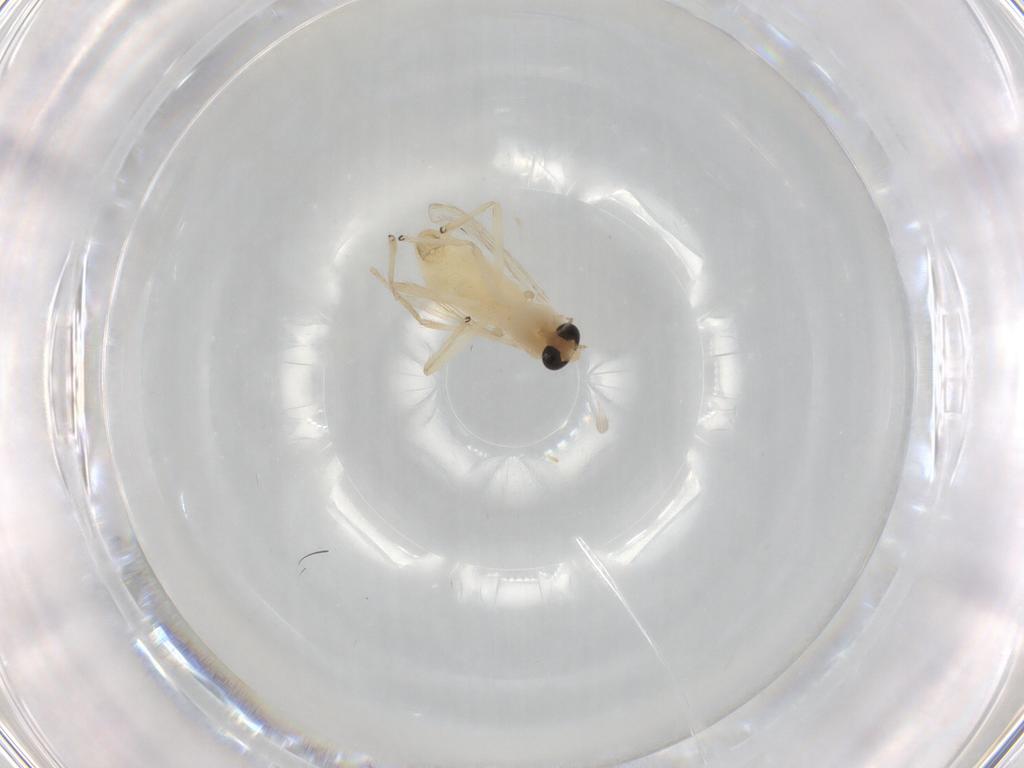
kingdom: Animalia
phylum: Arthropoda
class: Insecta
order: Diptera
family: Chironomidae
